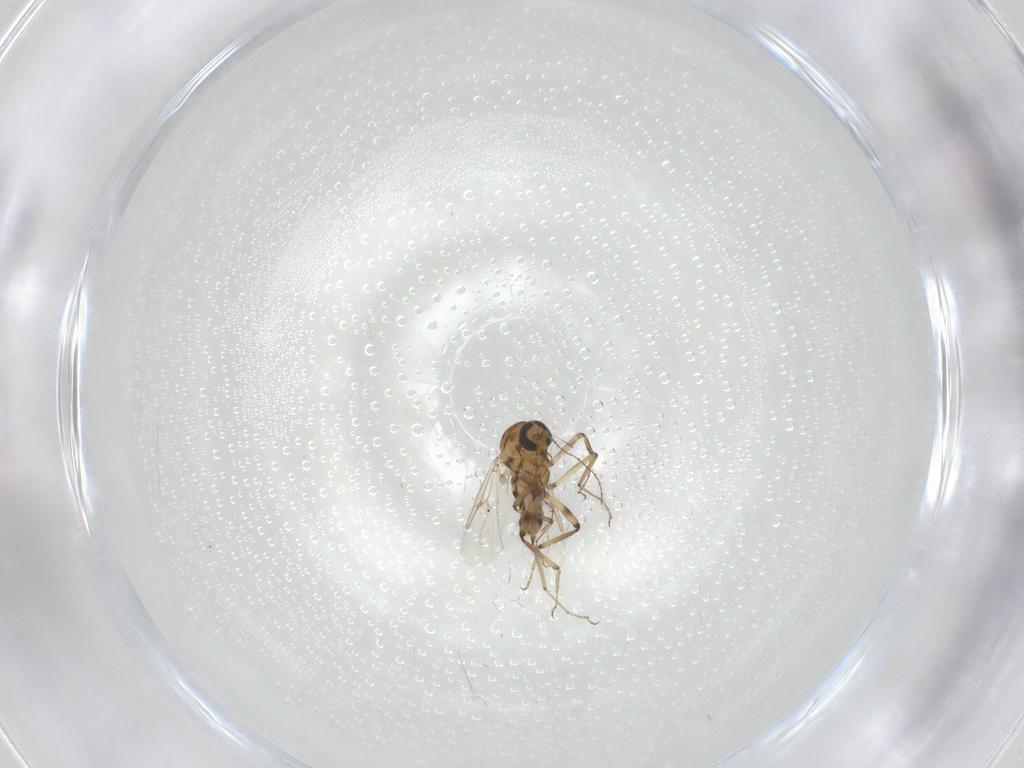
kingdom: Animalia
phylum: Arthropoda
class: Insecta
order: Diptera
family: Ceratopogonidae
